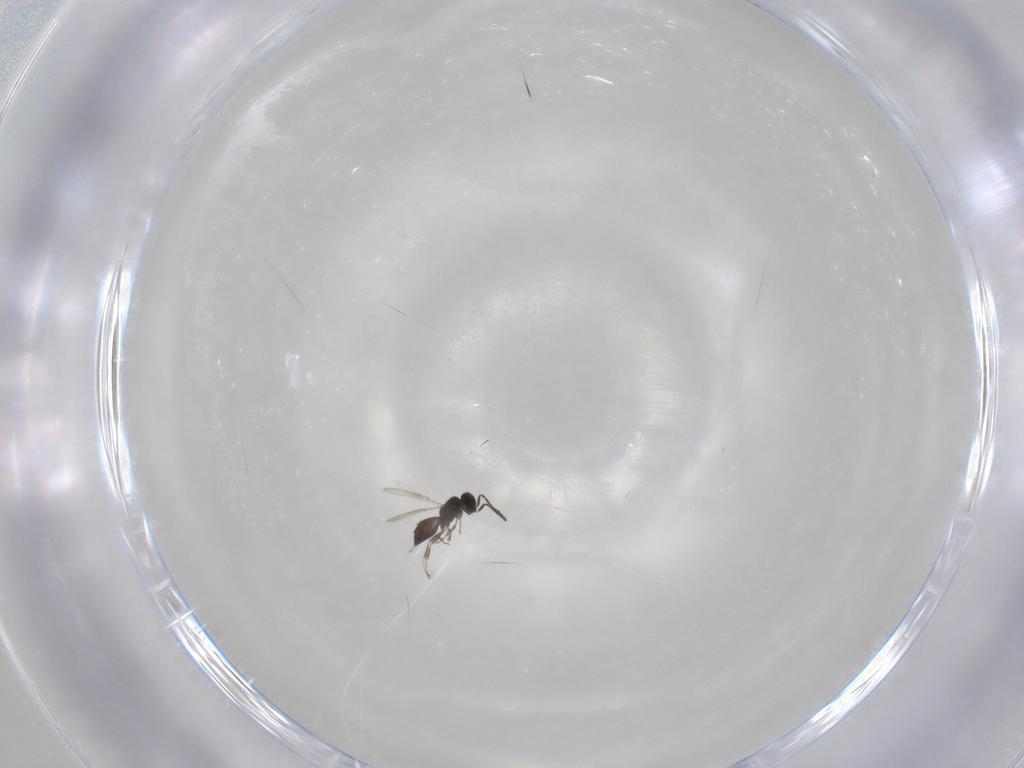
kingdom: Animalia
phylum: Arthropoda
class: Insecta
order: Hymenoptera
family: Scelionidae
